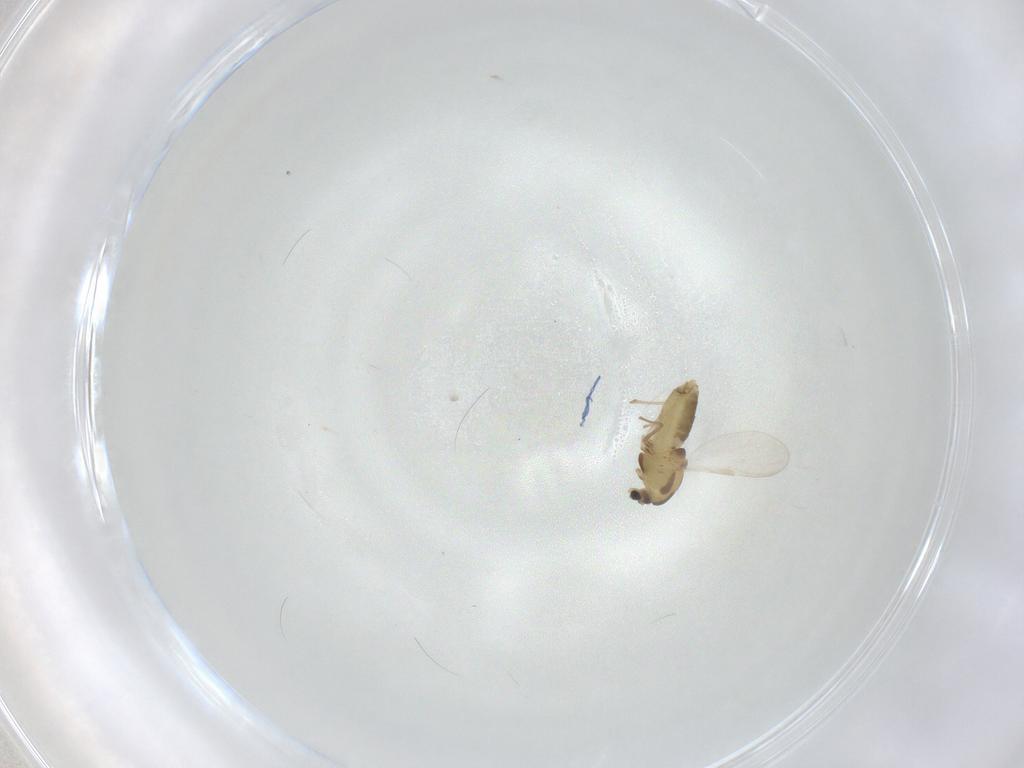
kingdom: Animalia
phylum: Arthropoda
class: Insecta
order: Diptera
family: Chironomidae
